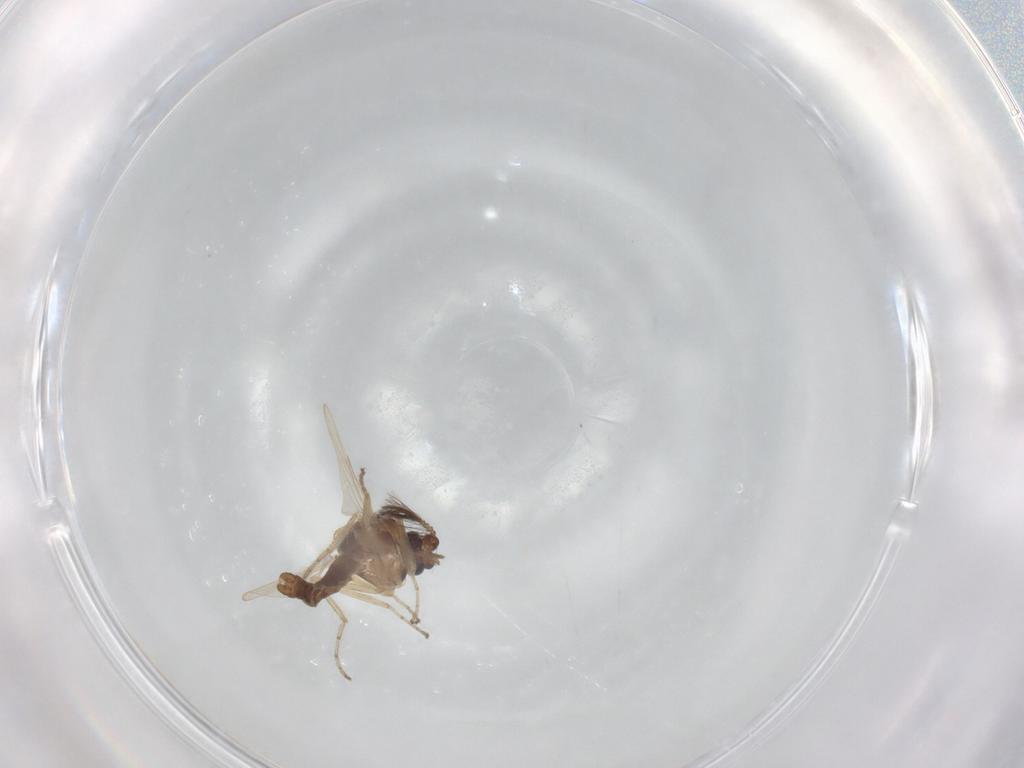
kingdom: Animalia
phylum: Arthropoda
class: Insecta
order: Diptera
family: Ceratopogonidae
